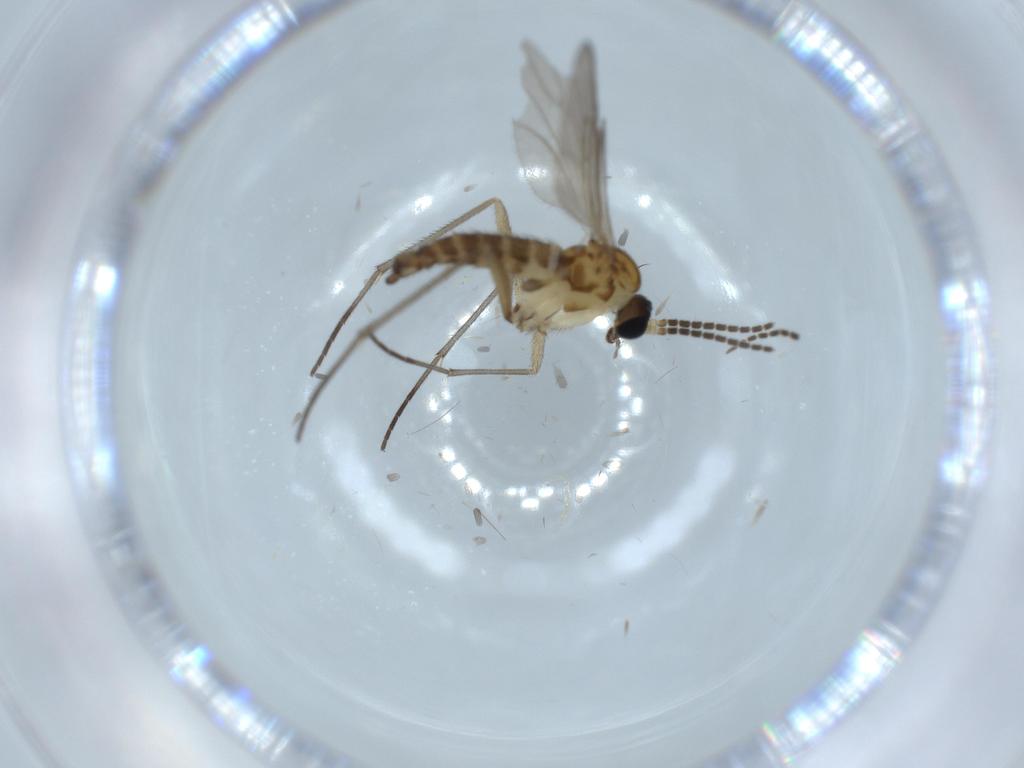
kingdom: Animalia
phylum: Arthropoda
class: Insecta
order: Diptera
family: Sciaridae
